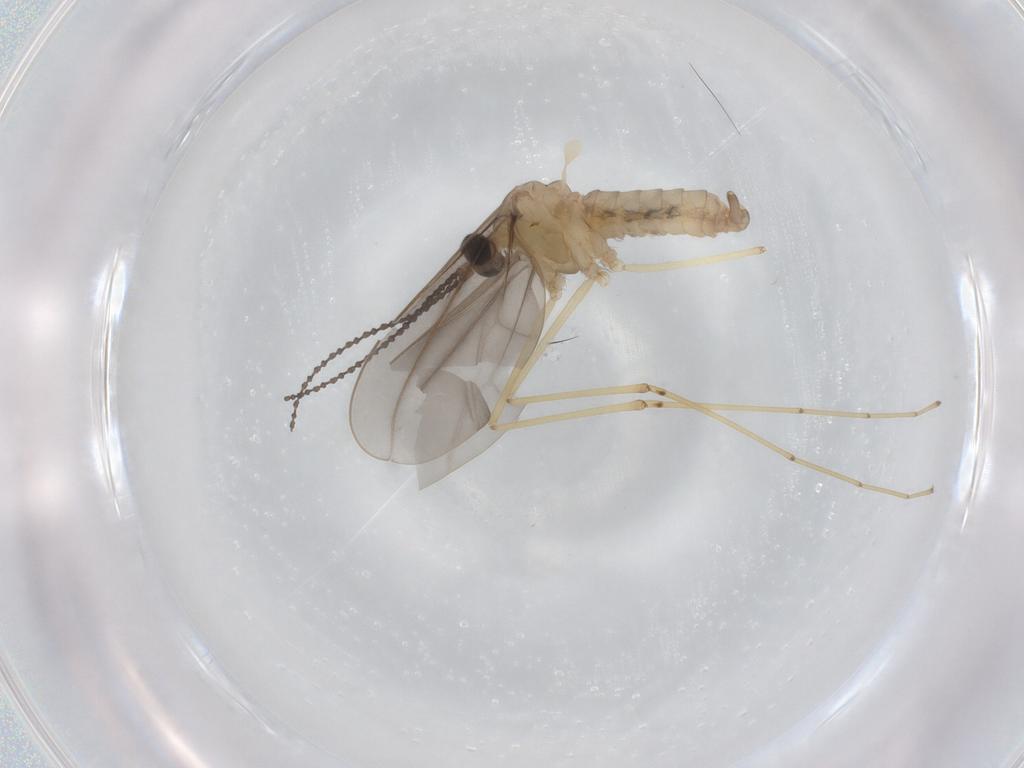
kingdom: Animalia
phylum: Arthropoda
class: Insecta
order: Diptera
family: Cecidomyiidae
